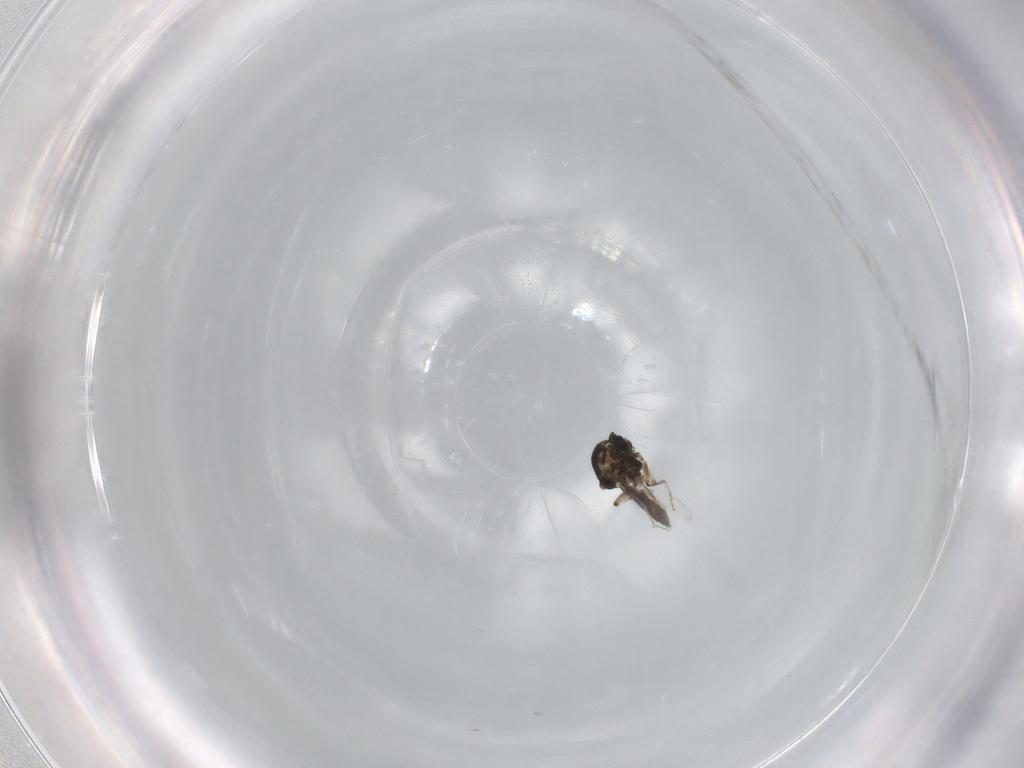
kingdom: Animalia
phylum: Arthropoda
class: Insecta
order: Diptera
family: Ceratopogonidae
